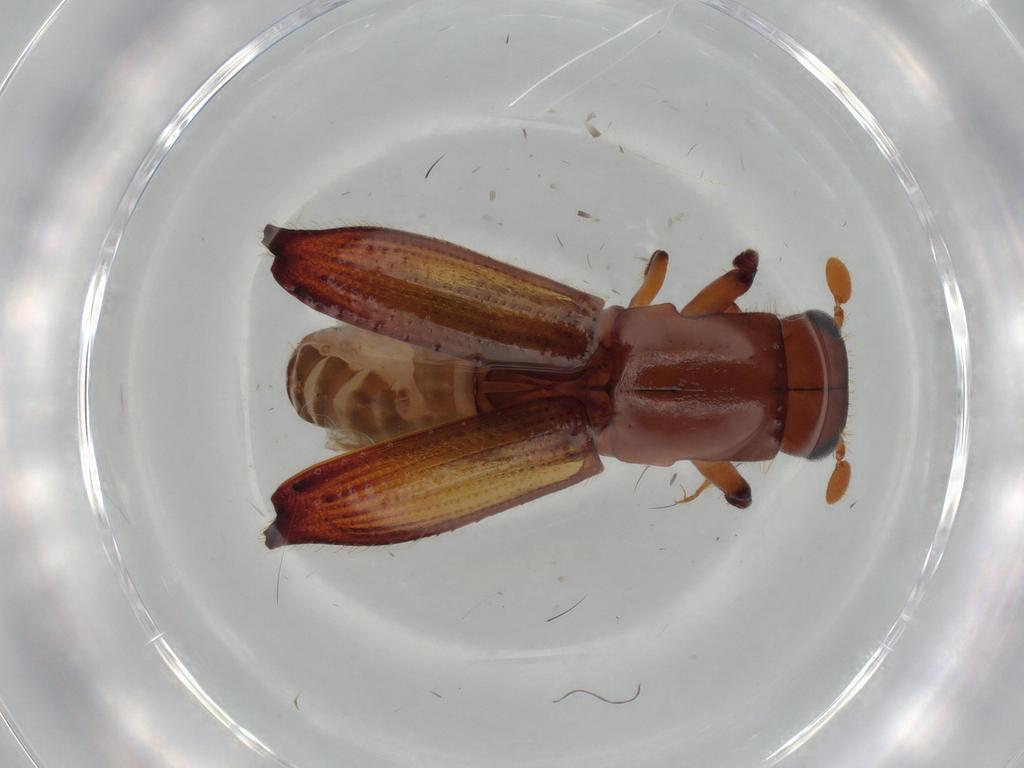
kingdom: Animalia
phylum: Arthropoda
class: Insecta
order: Coleoptera
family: Curculionidae
